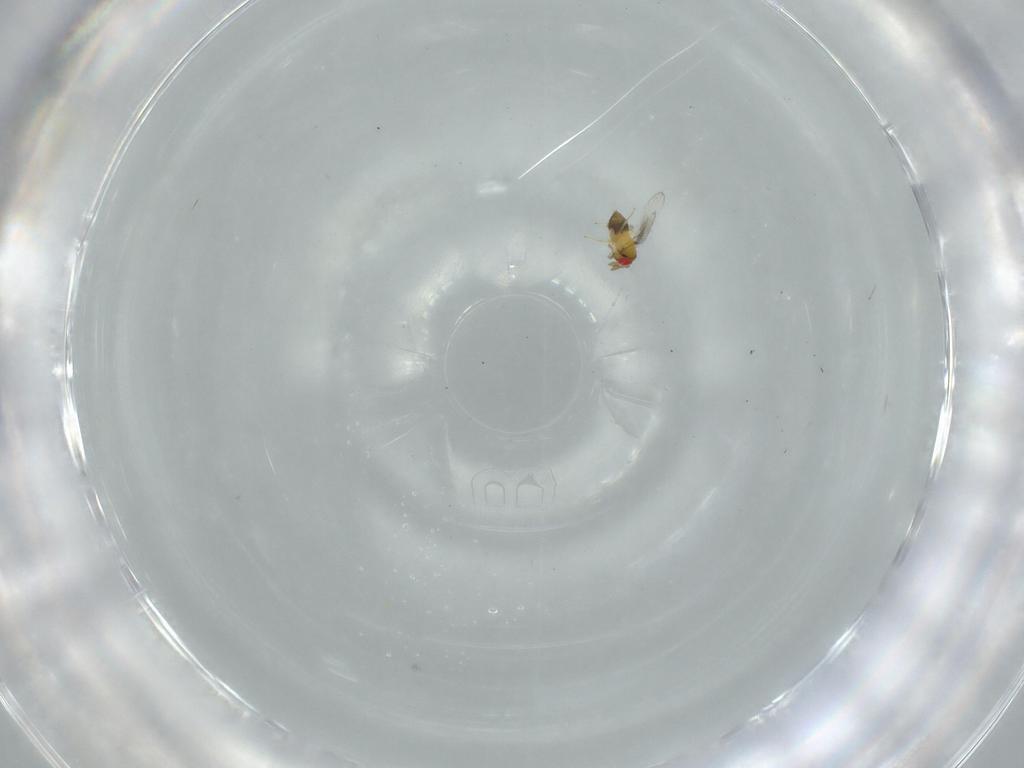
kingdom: Animalia
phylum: Arthropoda
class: Insecta
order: Hymenoptera
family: Trichogrammatidae
